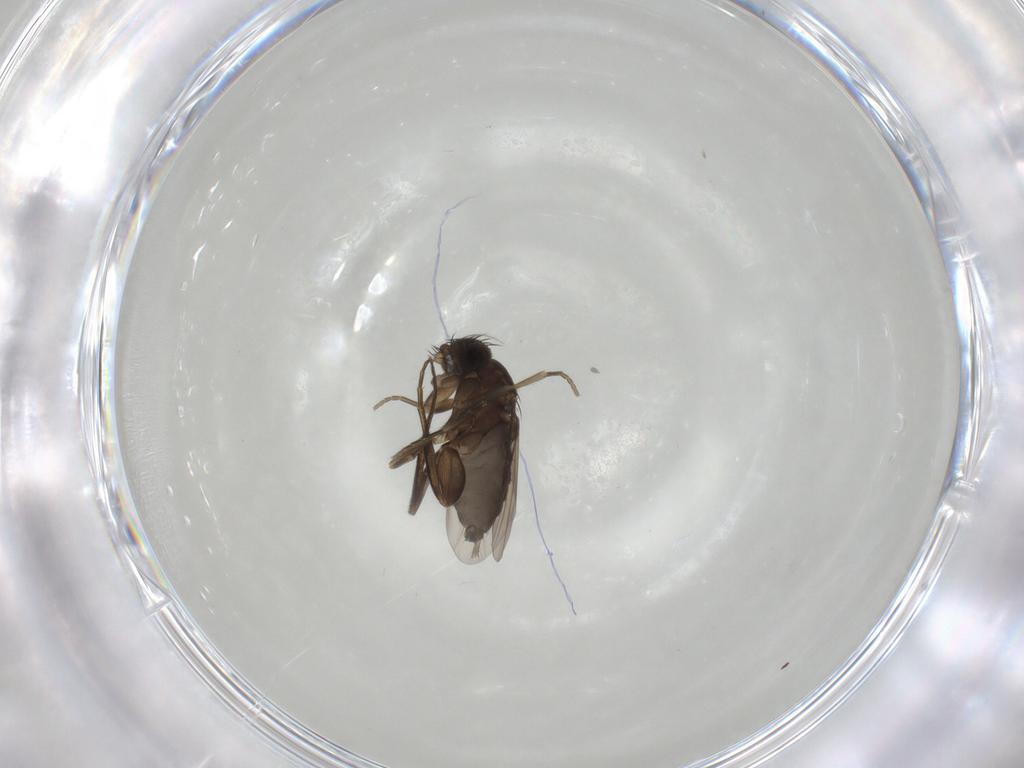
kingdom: Animalia
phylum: Arthropoda
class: Insecta
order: Diptera
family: Phoridae
